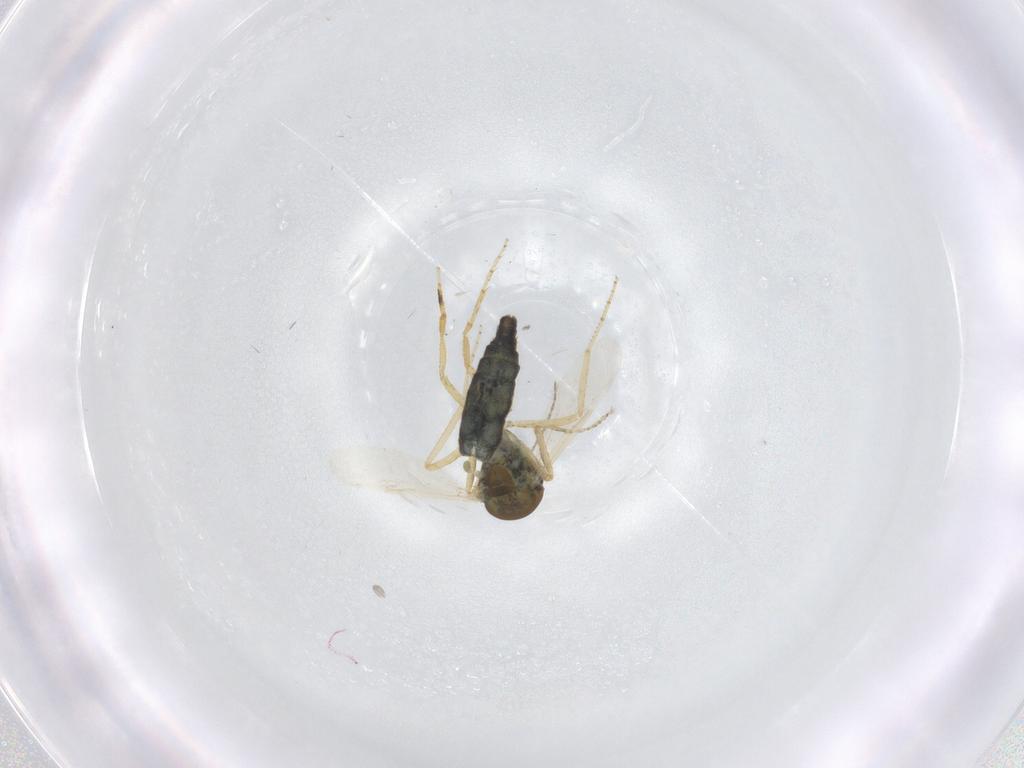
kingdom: Animalia
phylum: Arthropoda
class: Insecta
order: Diptera
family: Ceratopogonidae
